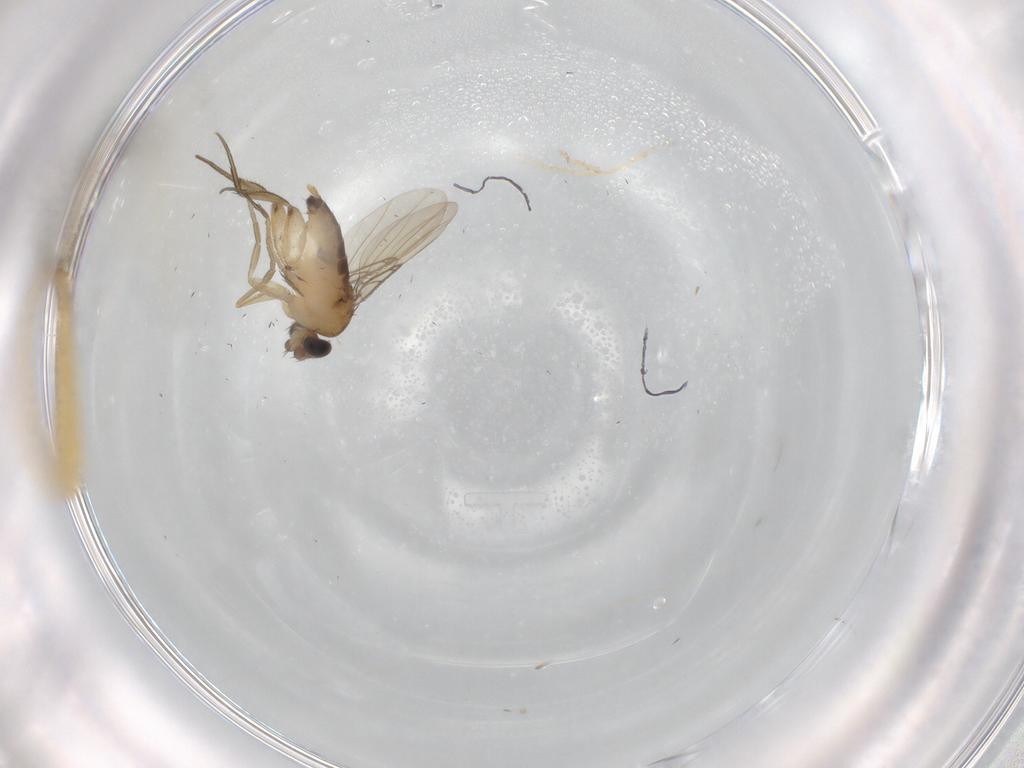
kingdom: Animalia
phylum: Arthropoda
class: Insecta
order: Diptera
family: Phoridae
